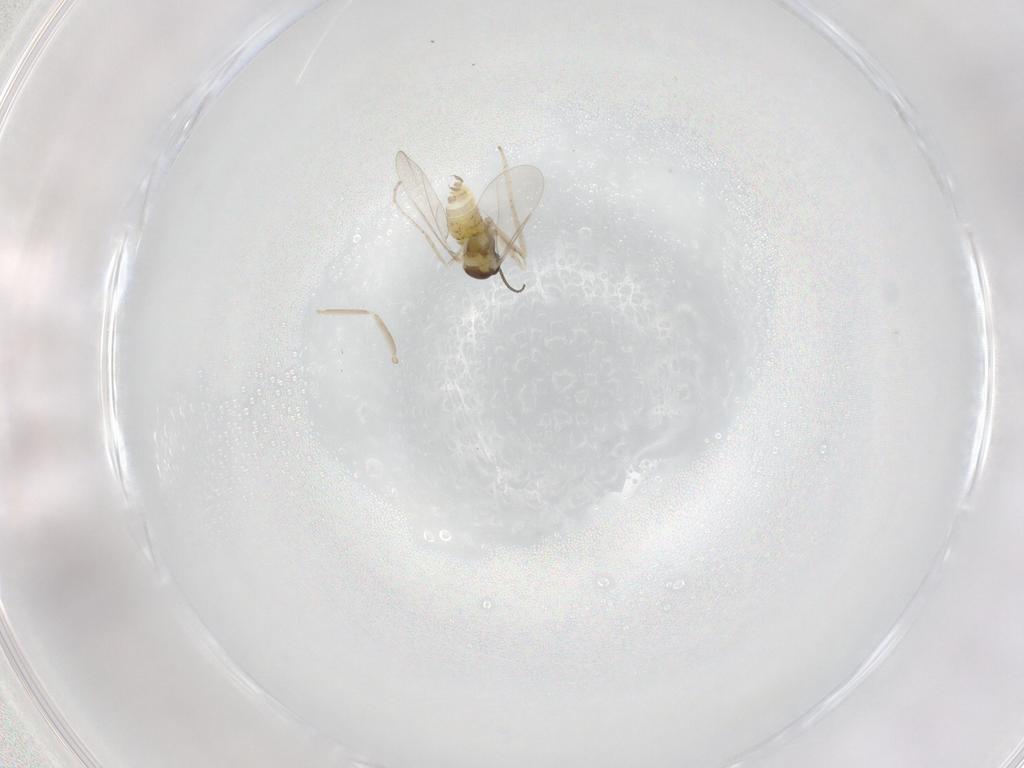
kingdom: Animalia
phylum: Arthropoda
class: Insecta
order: Diptera
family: Cecidomyiidae
